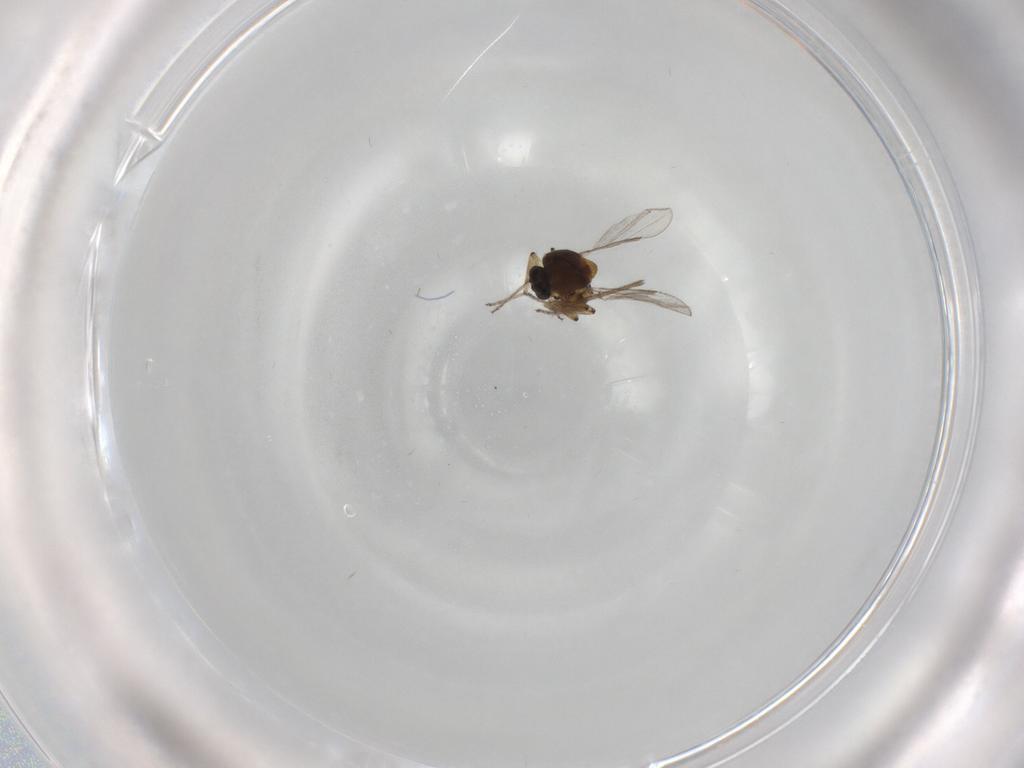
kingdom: Animalia
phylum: Arthropoda
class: Insecta
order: Diptera
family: Ceratopogonidae
